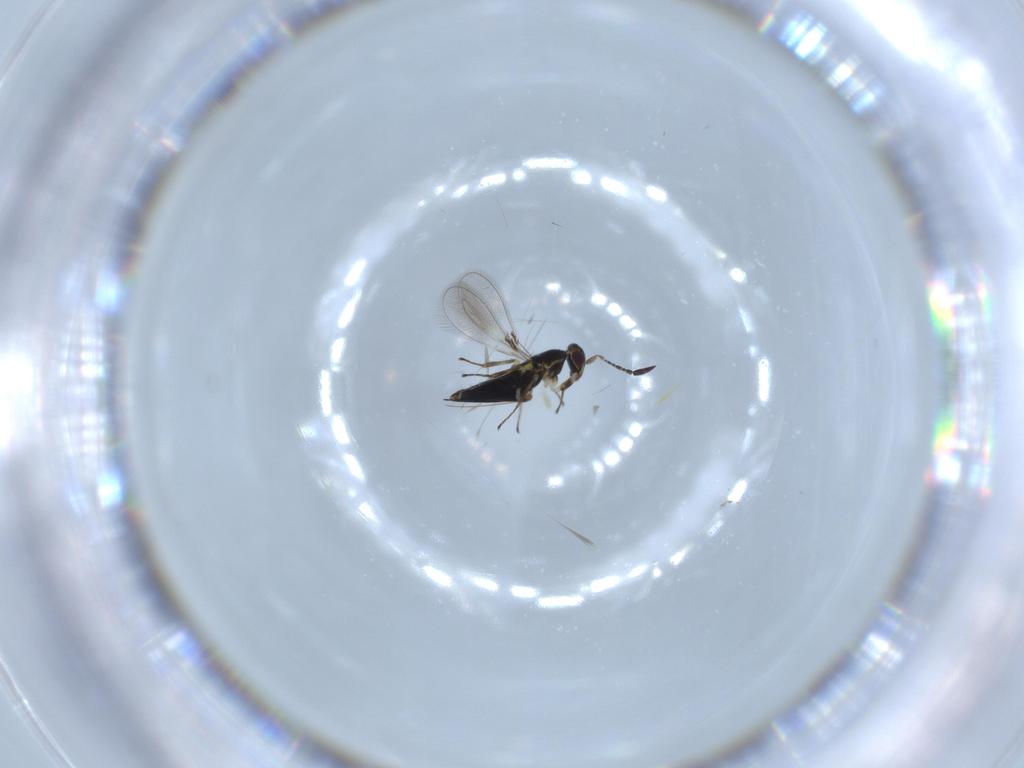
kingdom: Animalia
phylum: Arthropoda
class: Insecta
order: Hymenoptera
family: Mymaridae
